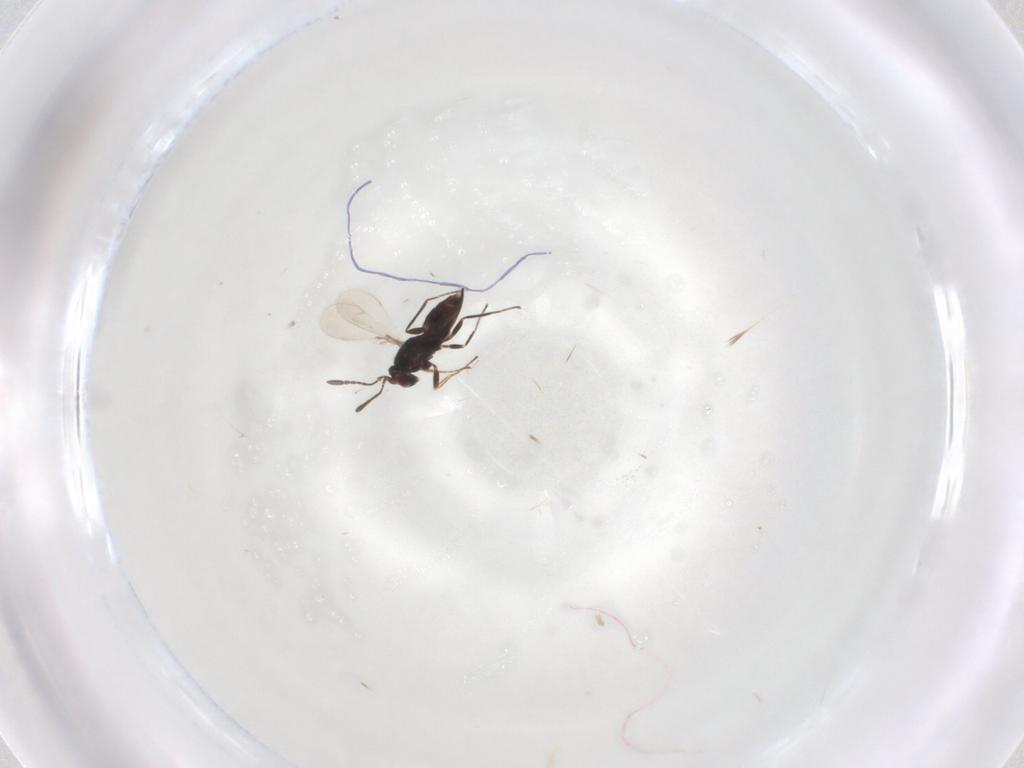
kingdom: Animalia
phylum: Arthropoda
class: Insecta
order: Hymenoptera
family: Mymaridae
